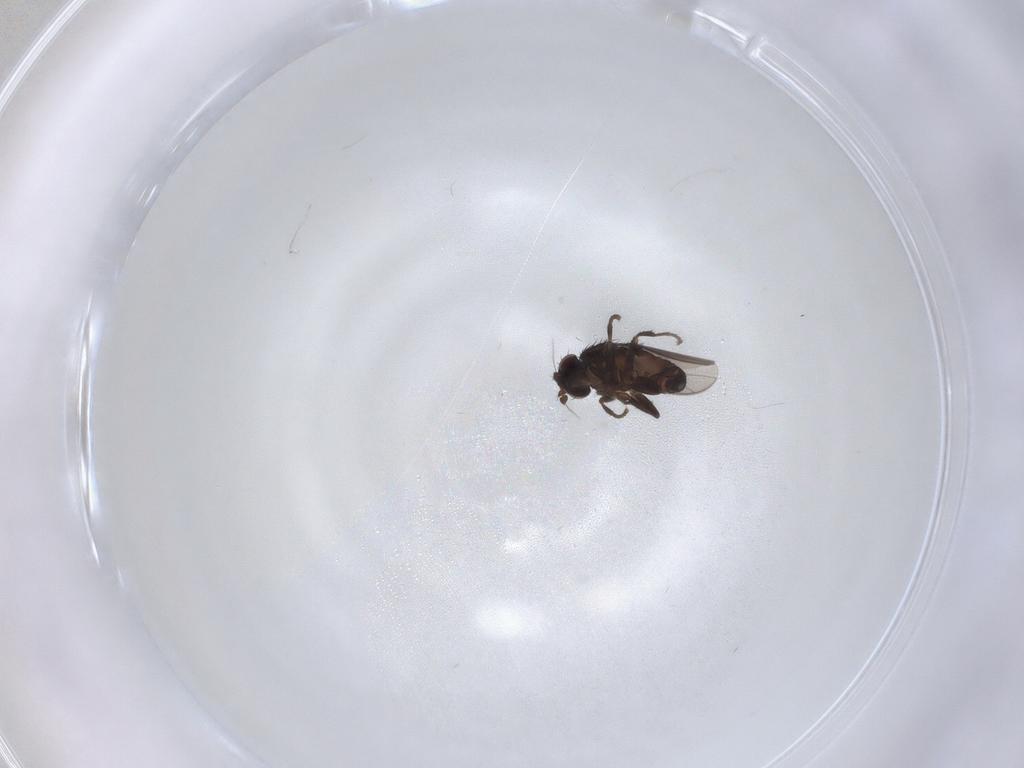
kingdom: Animalia
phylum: Arthropoda
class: Insecta
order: Diptera
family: Sphaeroceridae
